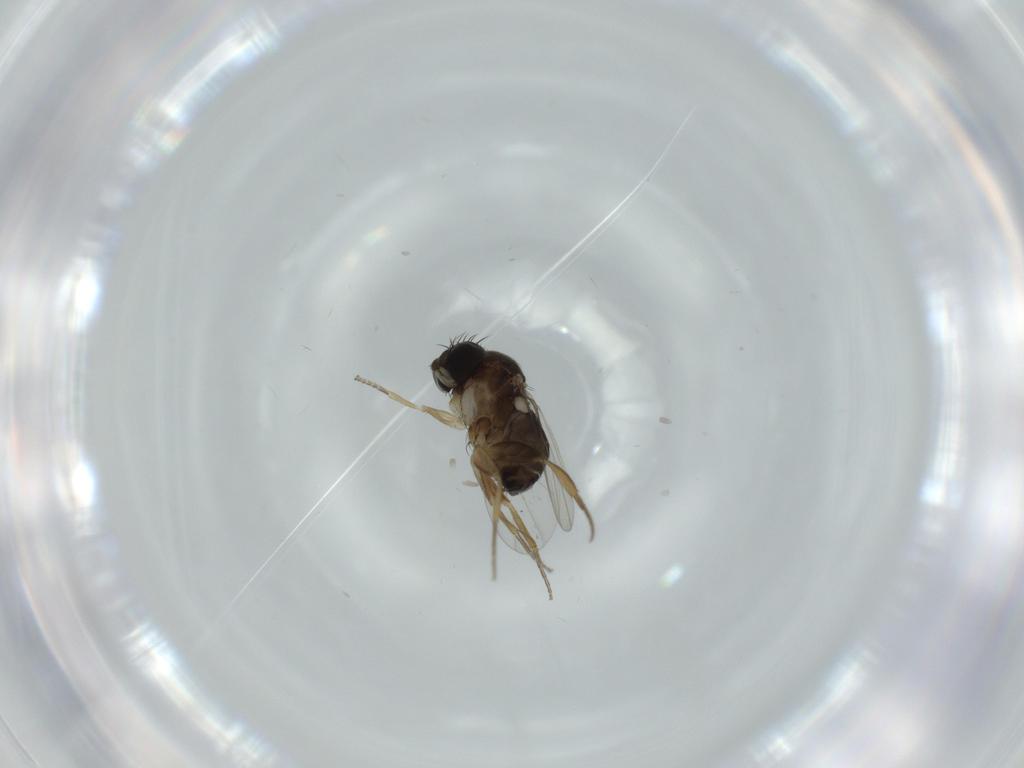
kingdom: Animalia
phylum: Arthropoda
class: Insecta
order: Diptera
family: Phoridae
